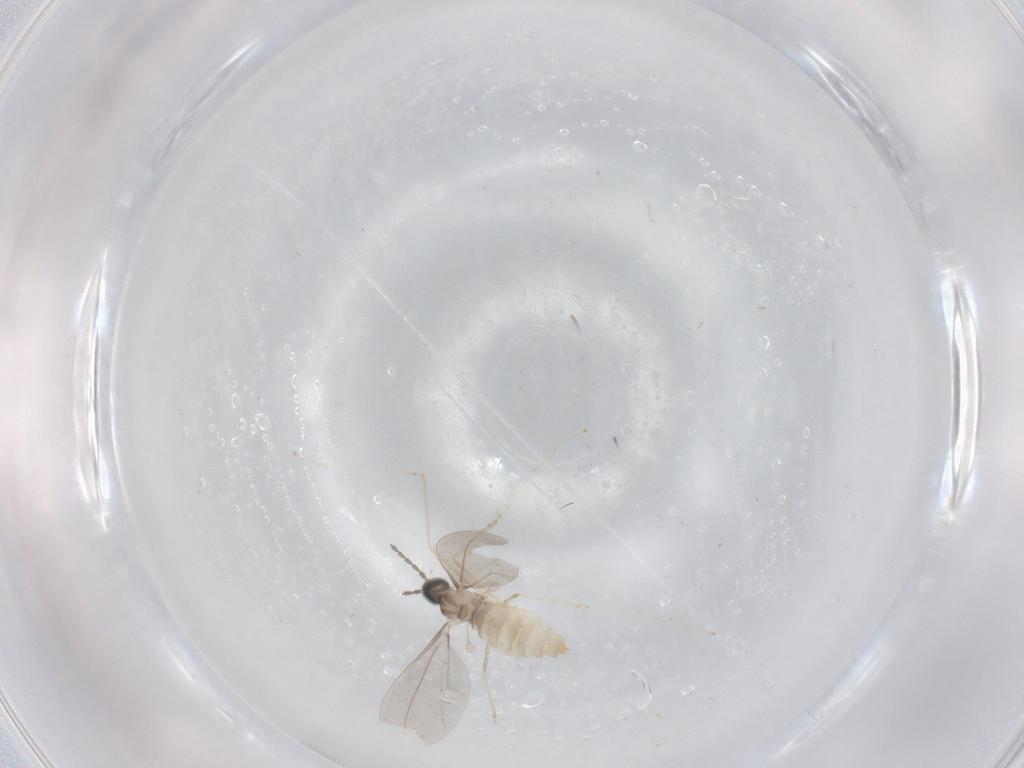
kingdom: Animalia
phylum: Arthropoda
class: Insecta
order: Diptera
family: Cecidomyiidae
